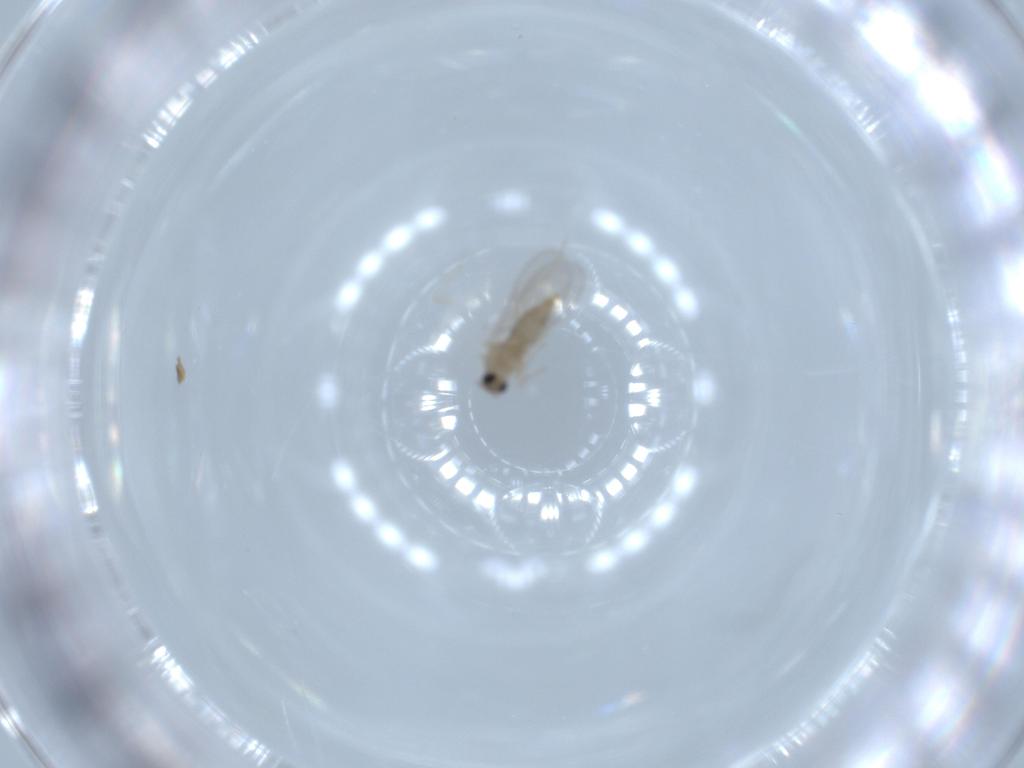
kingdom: Animalia
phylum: Arthropoda
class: Insecta
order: Diptera
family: Cecidomyiidae
